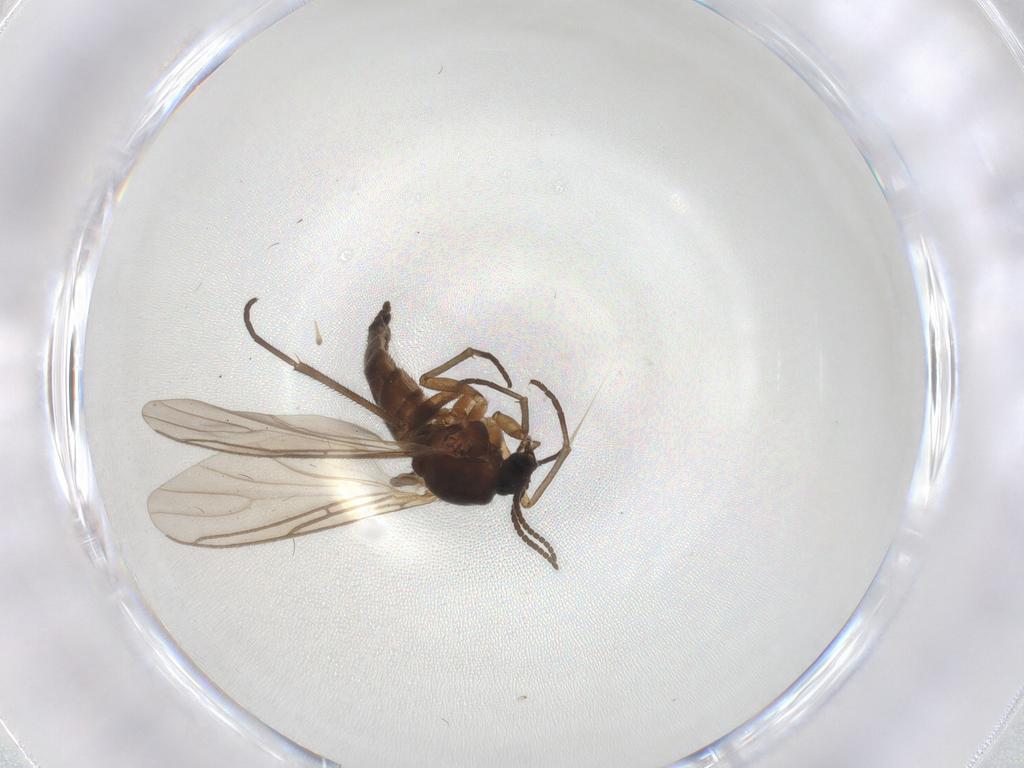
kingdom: Animalia
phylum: Arthropoda
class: Insecta
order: Diptera
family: Sciaridae
